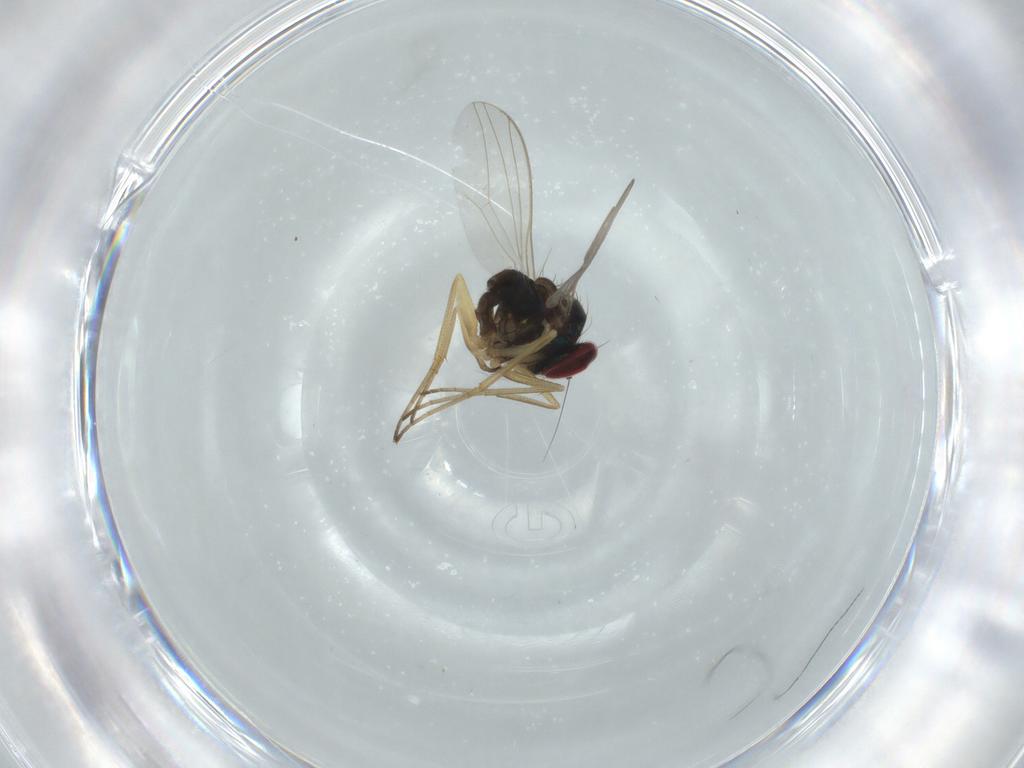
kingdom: Animalia
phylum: Arthropoda
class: Insecta
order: Diptera
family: Dolichopodidae
